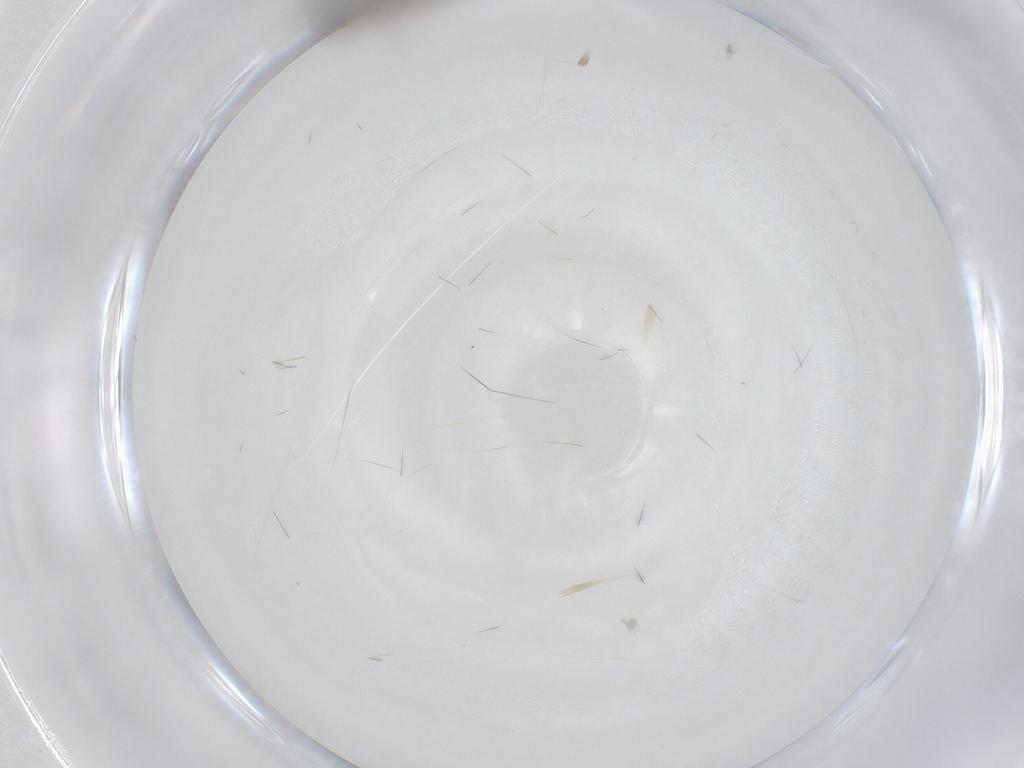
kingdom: Animalia
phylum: Arthropoda
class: Insecta
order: Hymenoptera
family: Diapriidae
